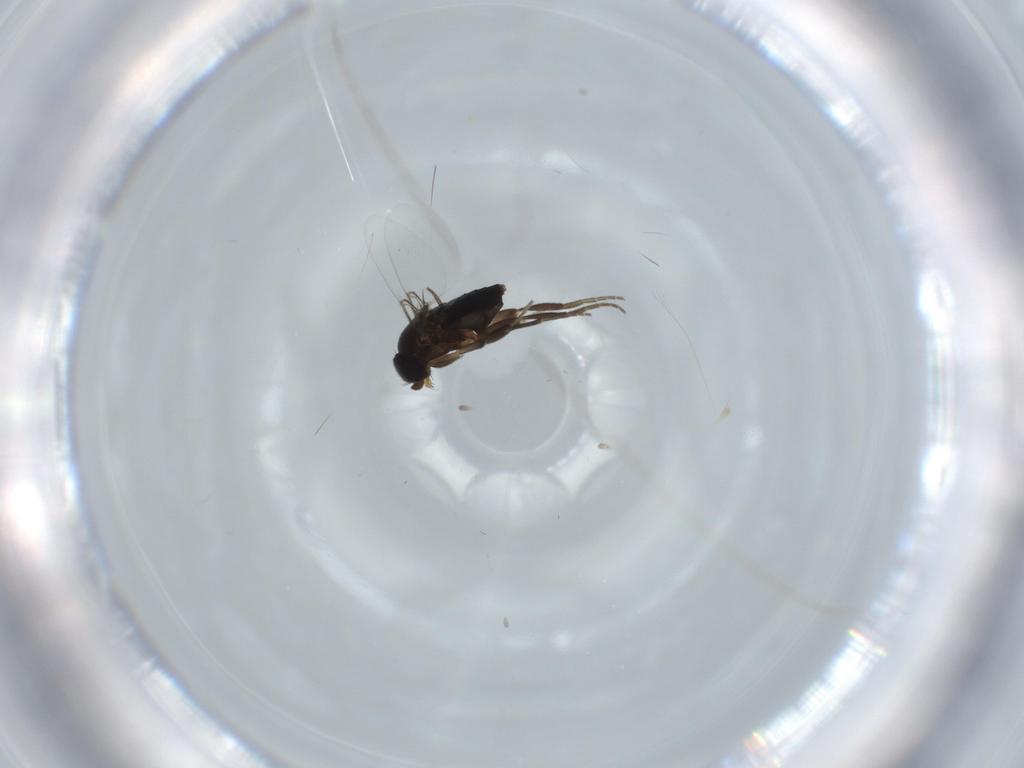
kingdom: Animalia
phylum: Arthropoda
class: Insecta
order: Diptera
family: Phoridae
